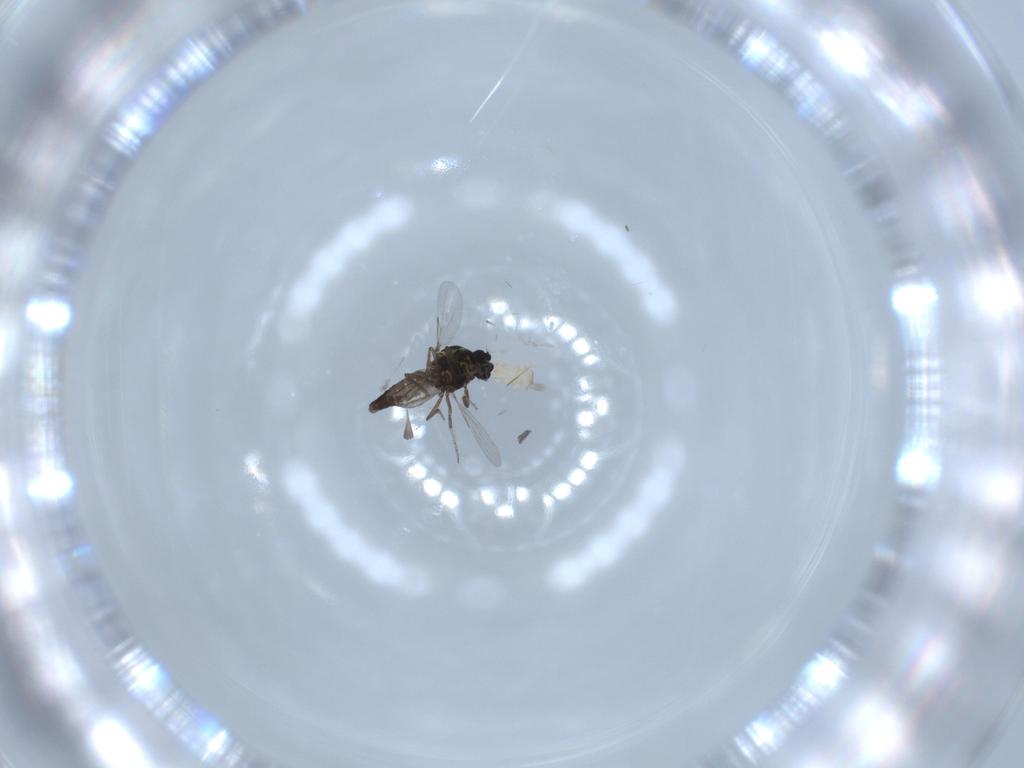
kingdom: Animalia
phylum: Arthropoda
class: Insecta
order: Diptera
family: Ceratopogonidae
